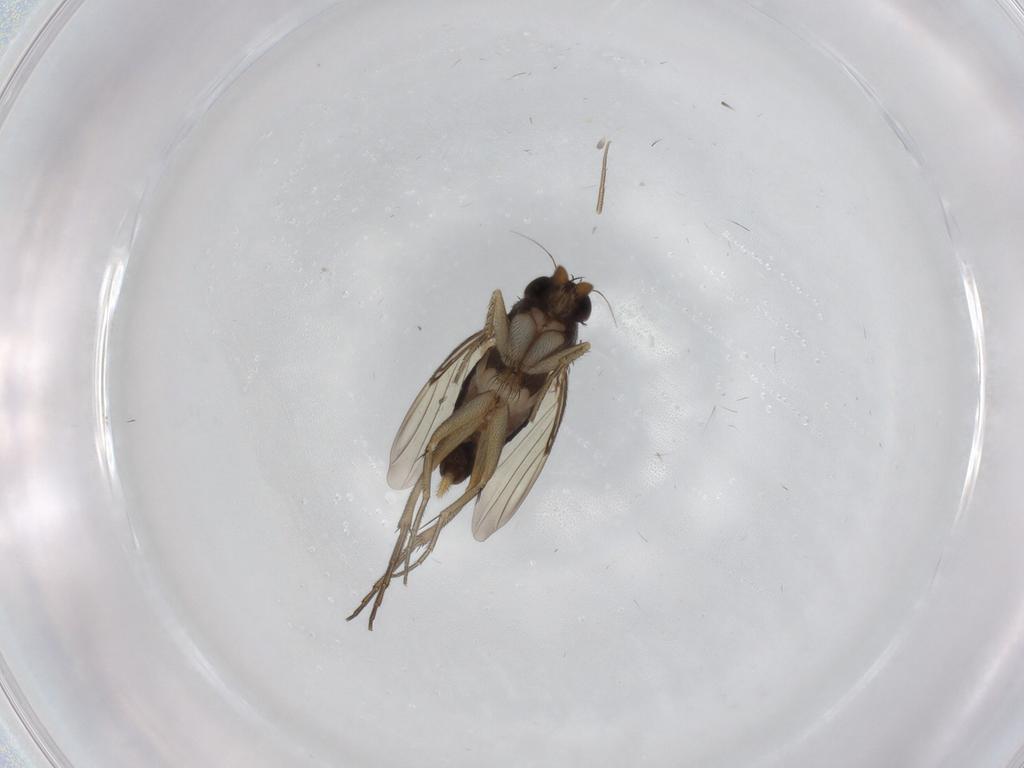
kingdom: Animalia
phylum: Arthropoda
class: Insecta
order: Diptera
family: Phoridae
